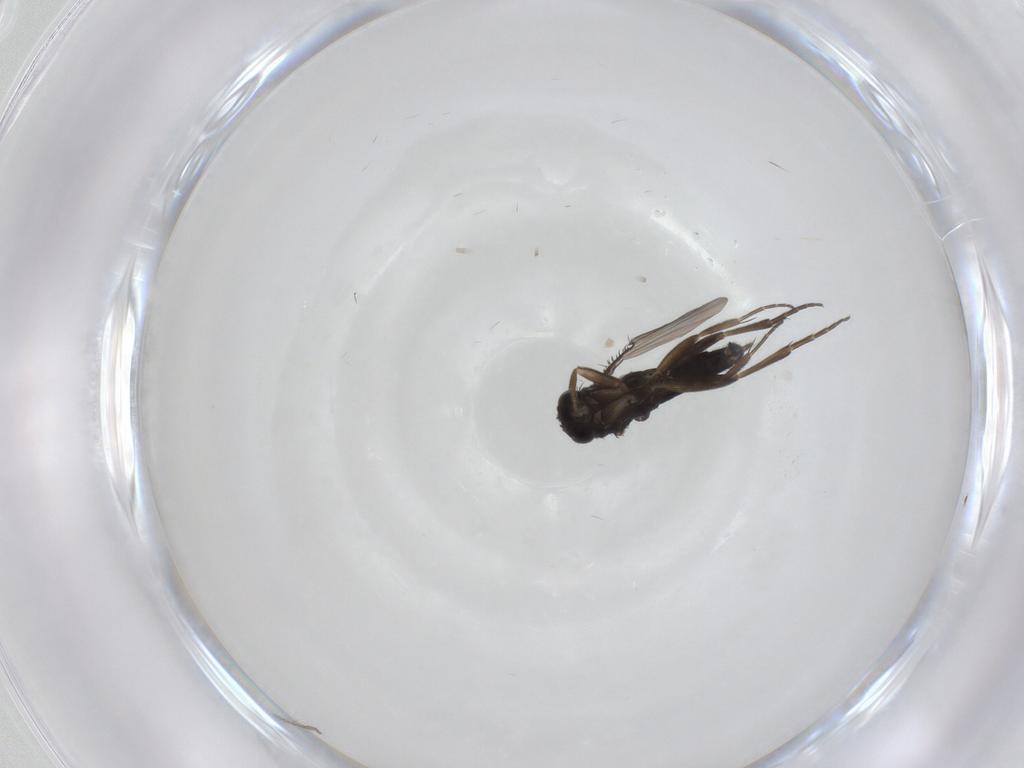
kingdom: Animalia
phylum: Arthropoda
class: Insecta
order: Diptera
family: Phoridae
